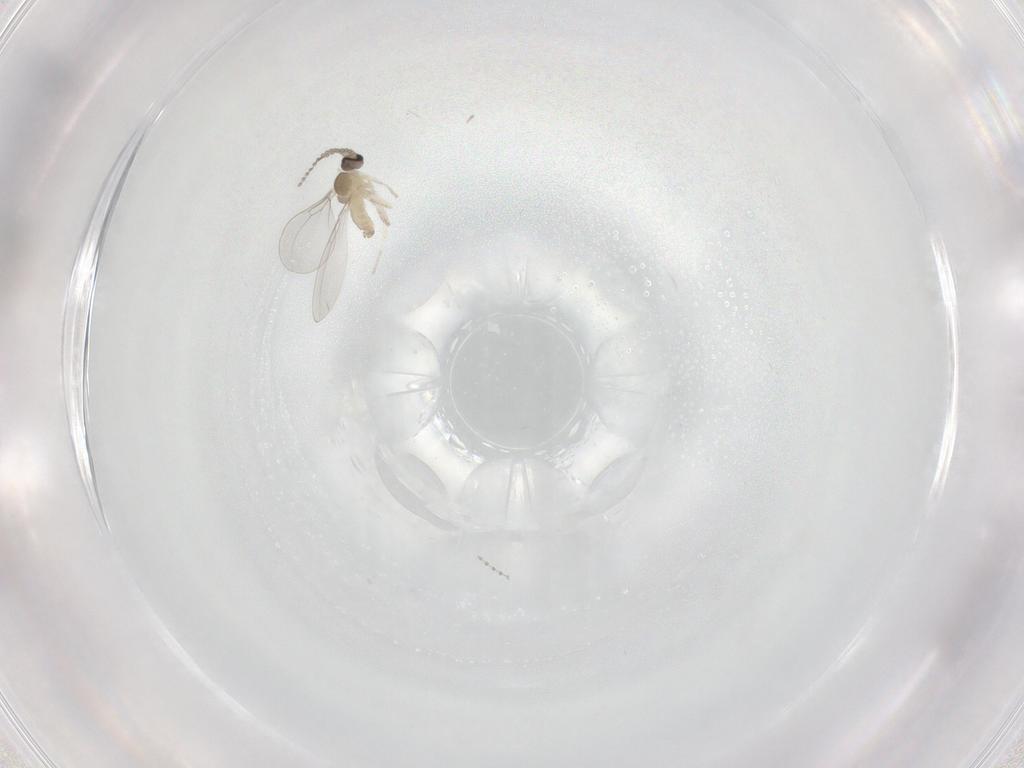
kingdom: Animalia
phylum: Arthropoda
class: Insecta
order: Diptera
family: Cecidomyiidae
